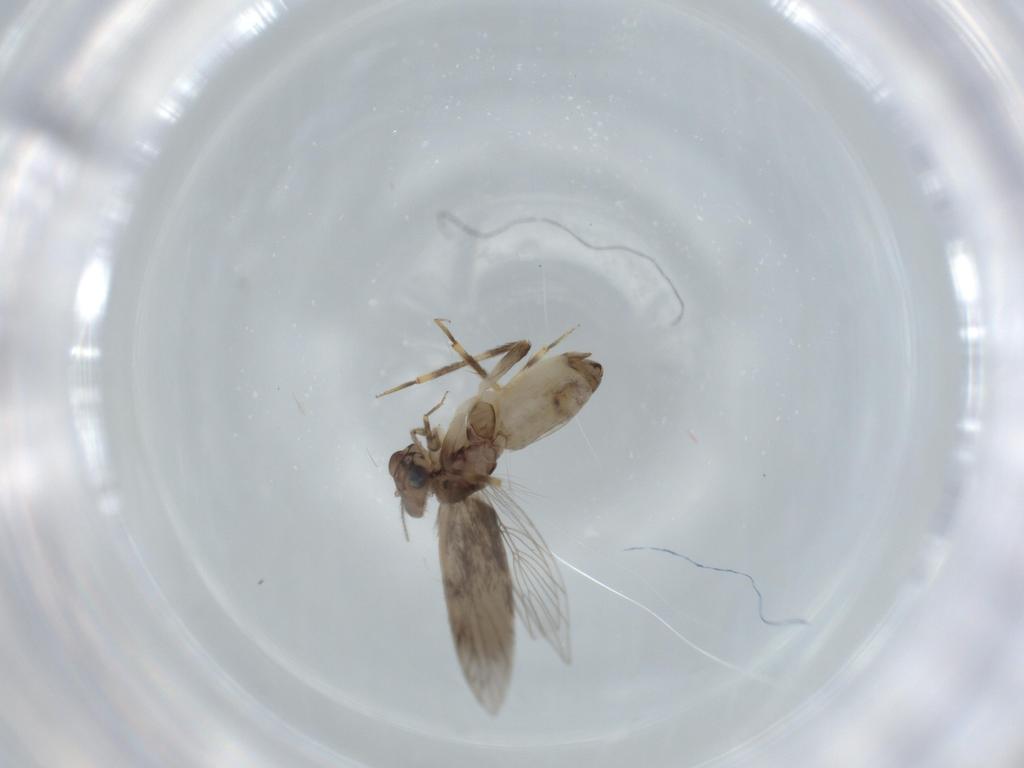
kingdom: Animalia
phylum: Arthropoda
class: Insecta
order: Psocodea
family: Lepidopsocidae
